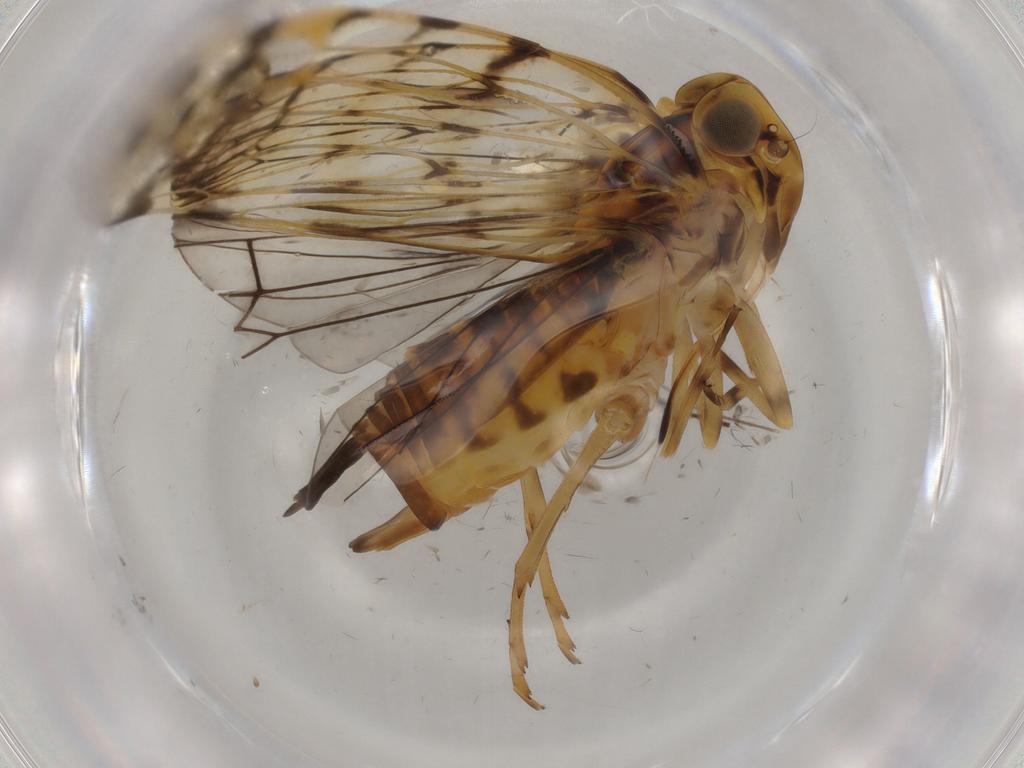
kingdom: Animalia
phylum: Arthropoda
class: Insecta
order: Hemiptera
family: Cixiidae
